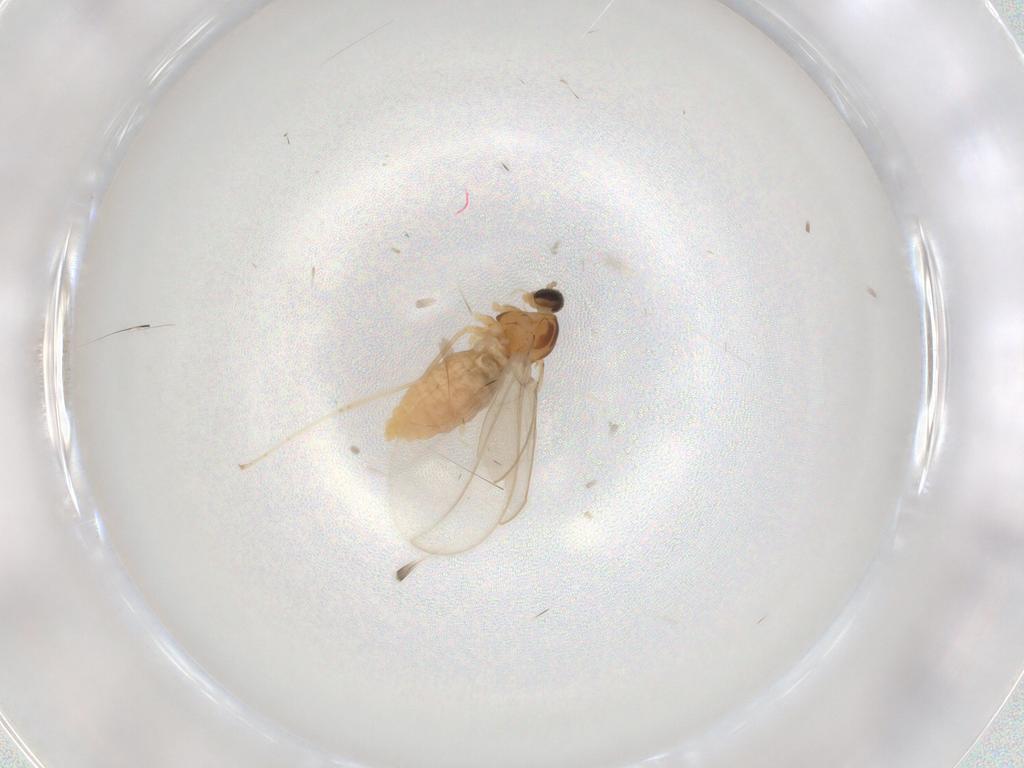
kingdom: Animalia
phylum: Arthropoda
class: Insecta
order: Diptera
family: Cecidomyiidae
